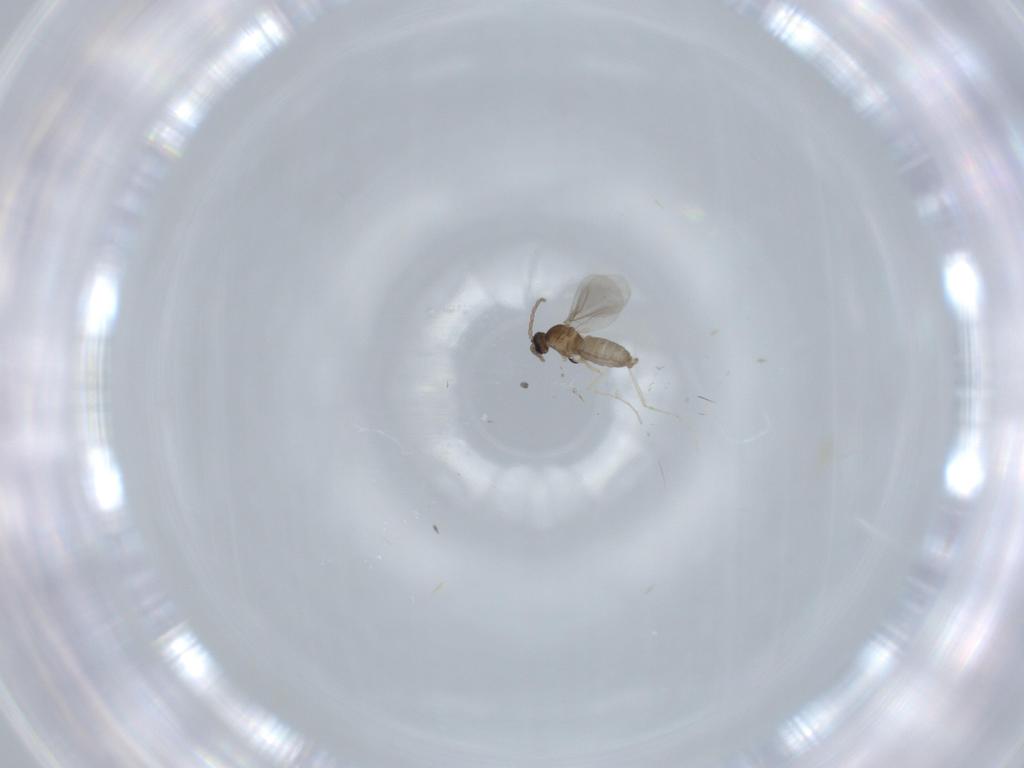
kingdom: Animalia
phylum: Arthropoda
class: Insecta
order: Diptera
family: Cecidomyiidae
